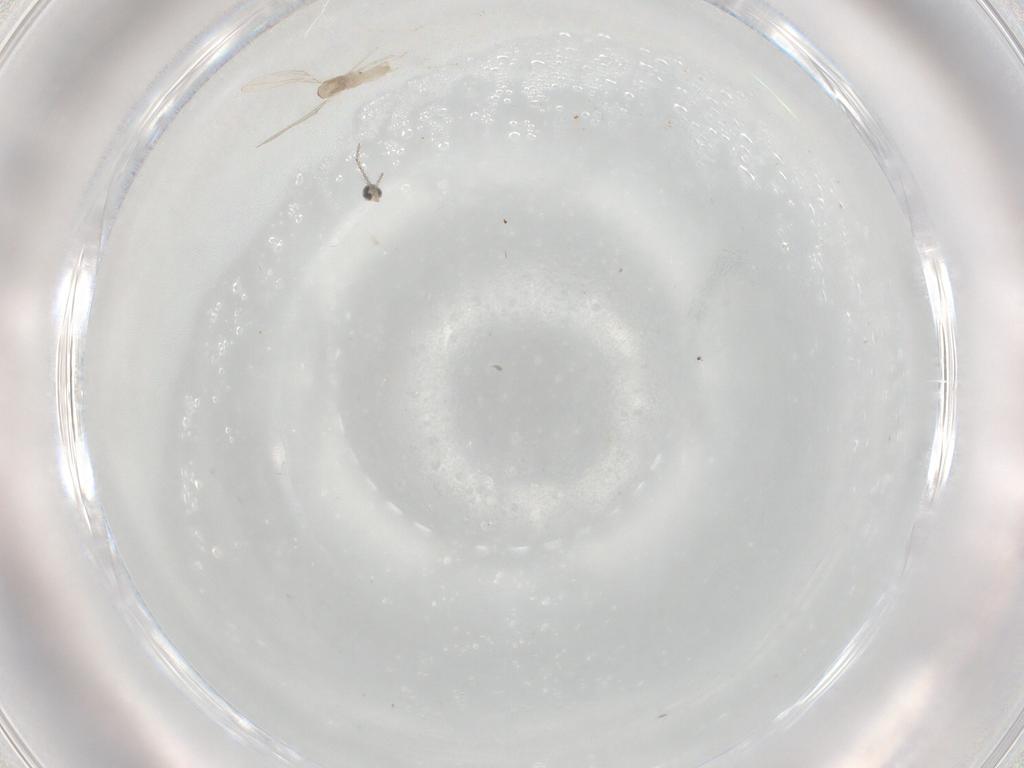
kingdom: Animalia
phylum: Arthropoda
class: Insecta
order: Diptera
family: Cecidomyiidae
